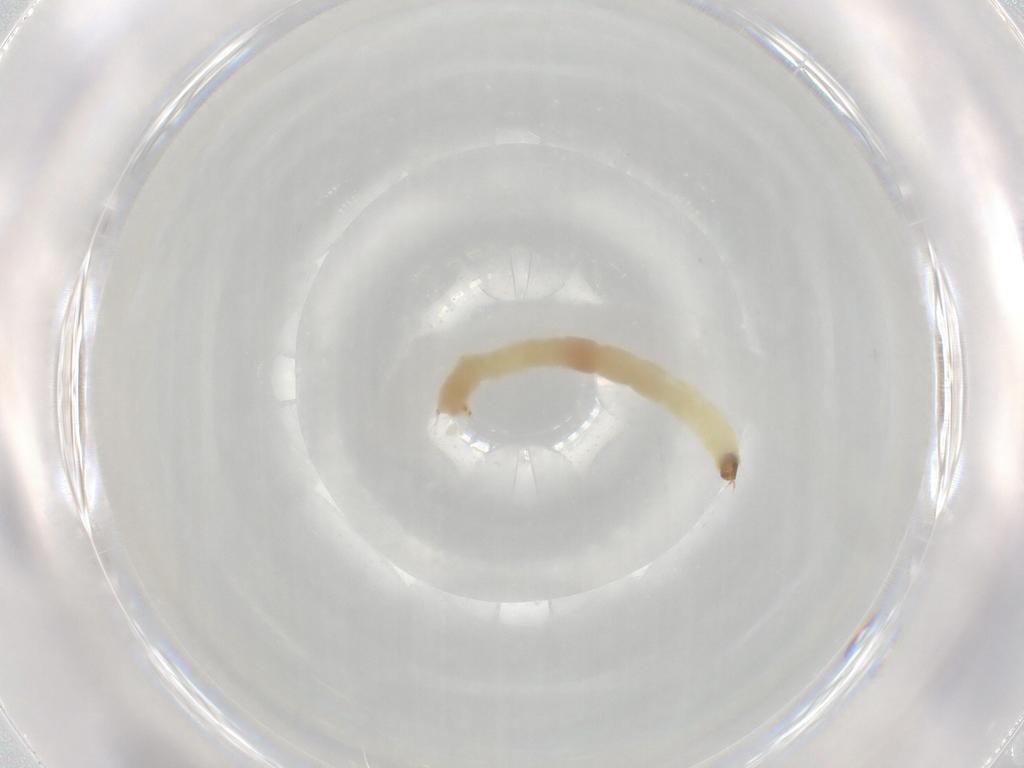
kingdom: Animalia
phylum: Arthropoda
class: Insecta
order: Diptera
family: Chironomidae
